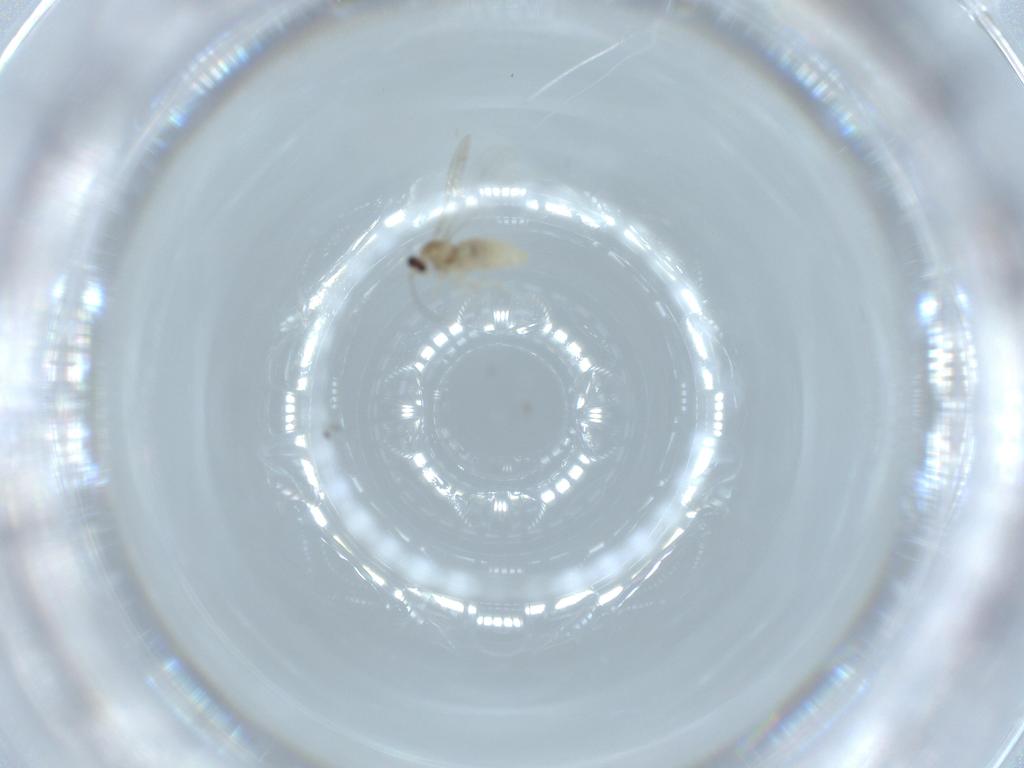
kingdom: Animalia
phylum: Arthropoda
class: Insecta
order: Diptera
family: Cecidomyiidae
